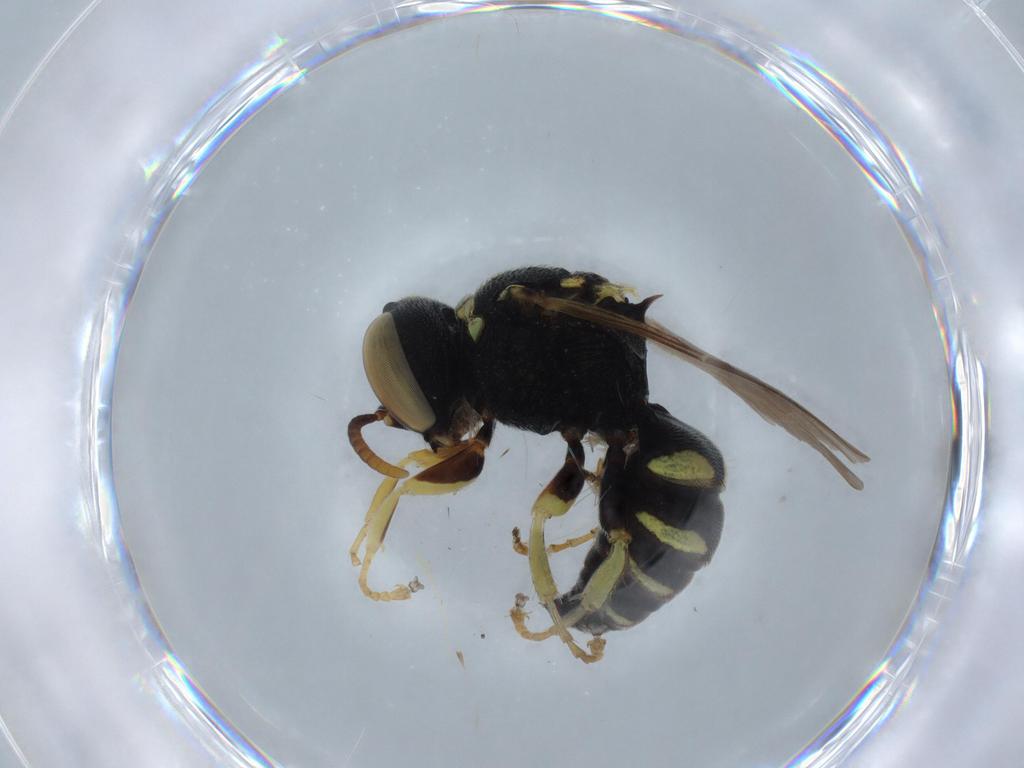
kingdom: Animalia
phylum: Arthropoda
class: Insecta
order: Hymenoptera
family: Crabronidae
